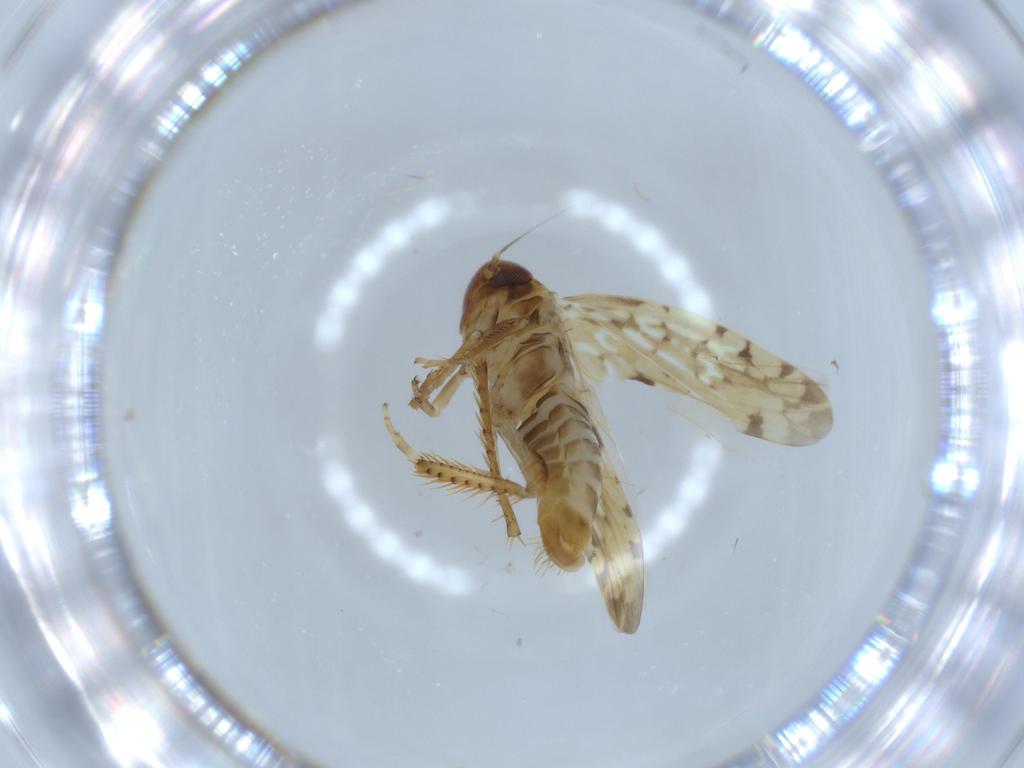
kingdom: Animalia
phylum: Arthropoda
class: Insecta
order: Hemiptera
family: Cicadellidae
